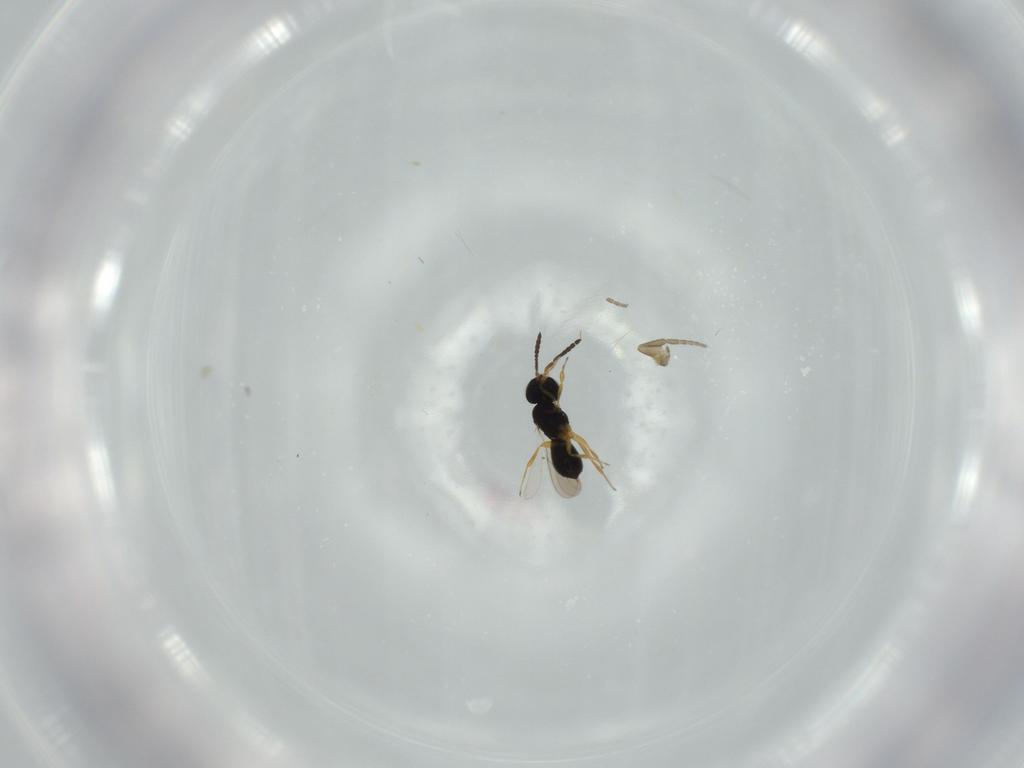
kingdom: Animalia
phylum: Arthropoda
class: Insecta
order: Hymenoptera
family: Scelionidae
